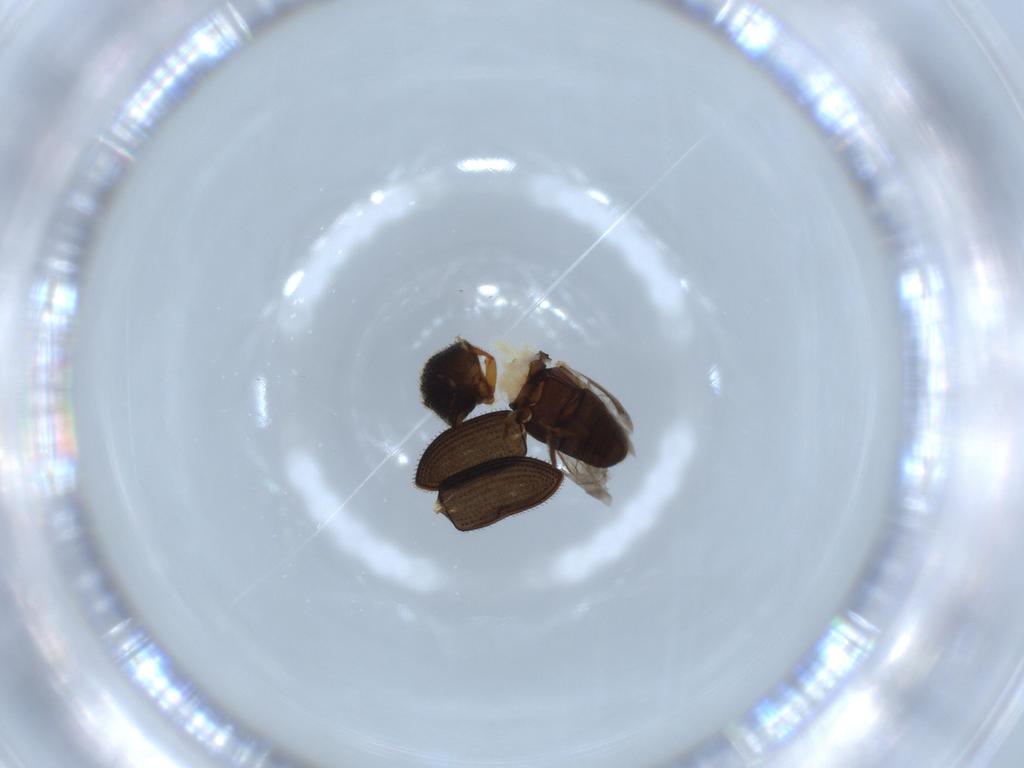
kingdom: Animalia
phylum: Arthropoda
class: Insecta
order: Coleoptera
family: Curculionidae
